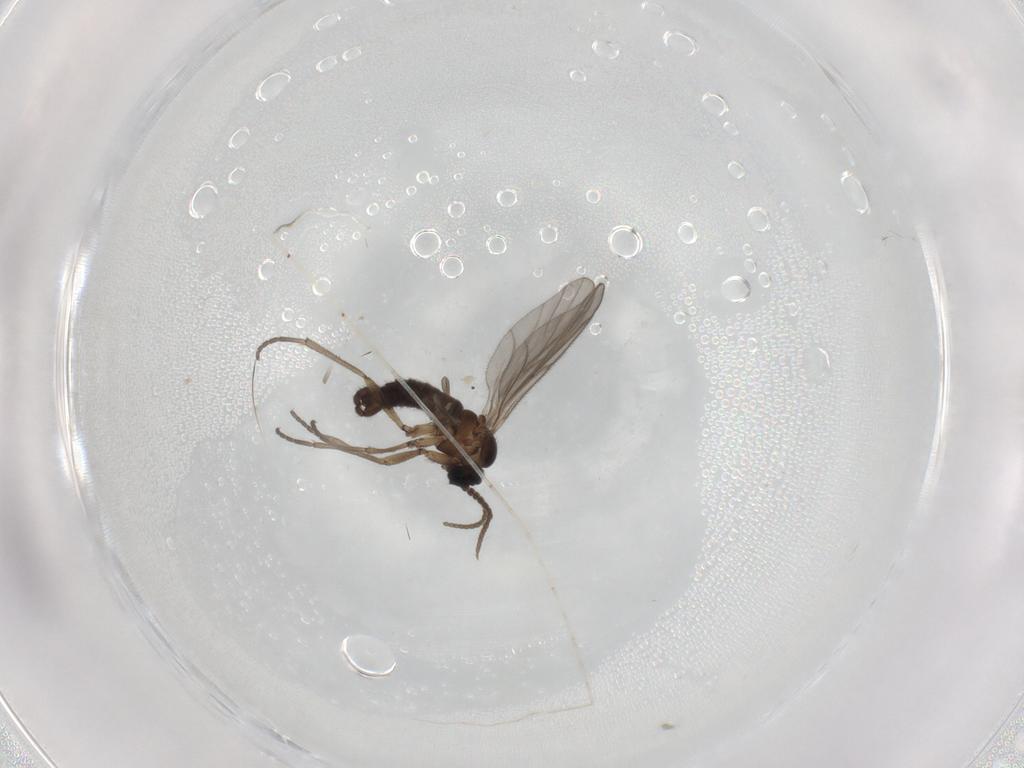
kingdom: Animalia
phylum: Arthropoda
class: Insecta
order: Diptera
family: Sciaridae
